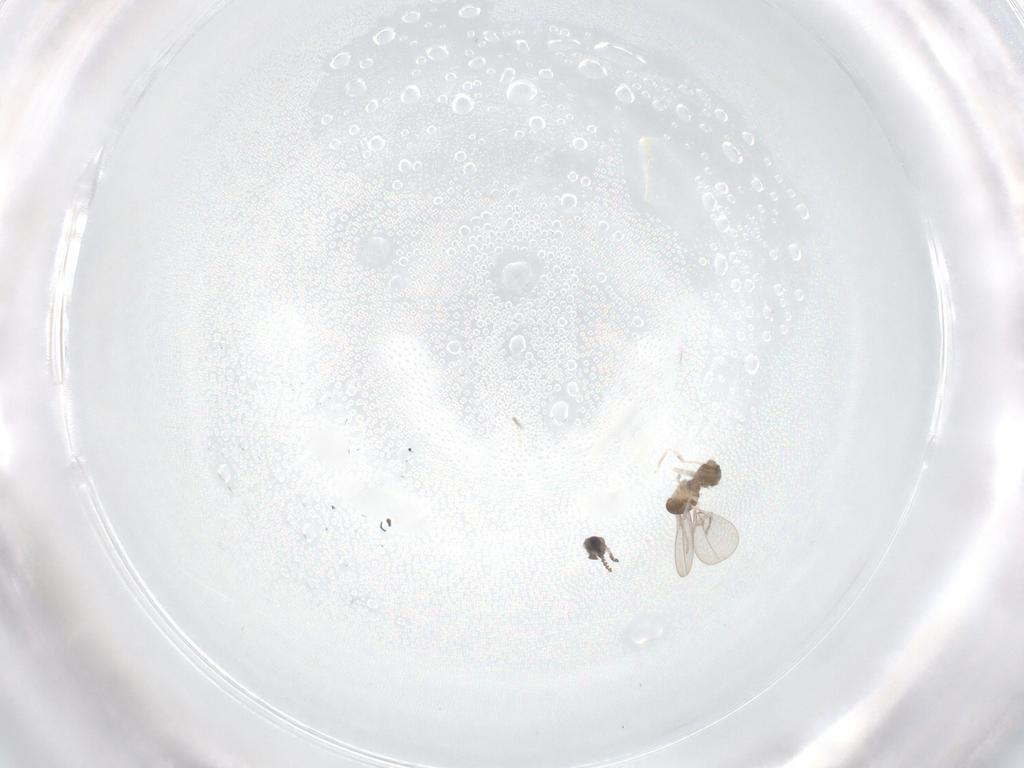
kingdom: Animalia
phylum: Arthropoda
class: Insecta
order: Diptera
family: Cecidomyiidae
